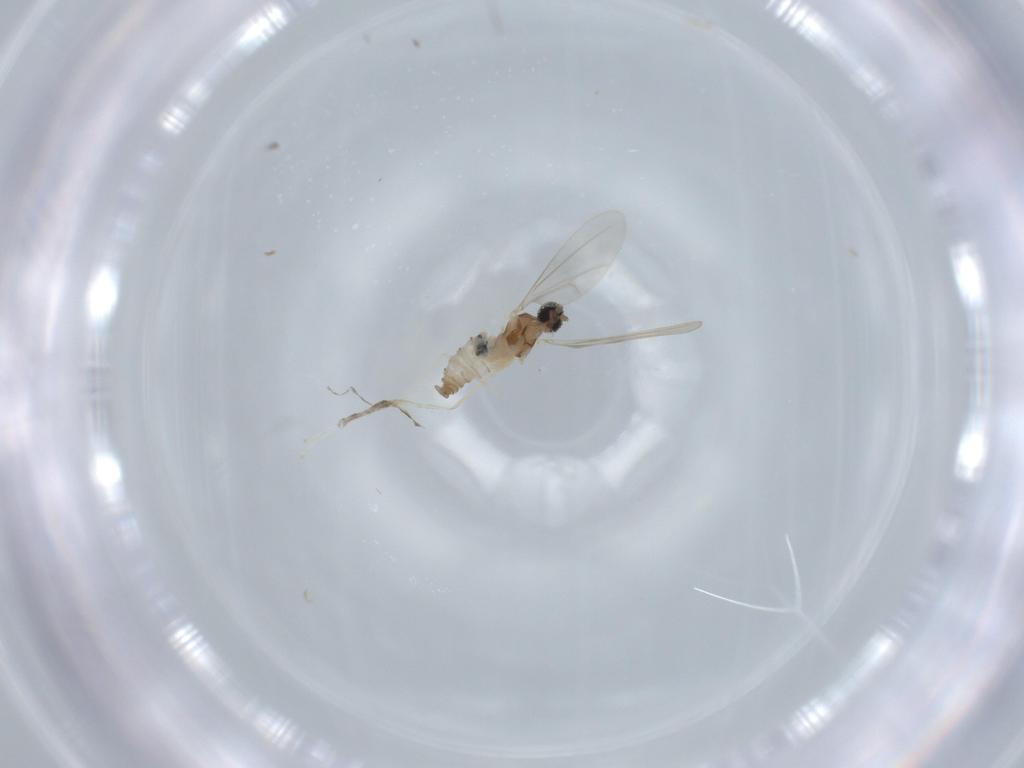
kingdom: Animalia
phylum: Arthropoda
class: Insecta
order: Diptera
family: Cecidomyiidae
